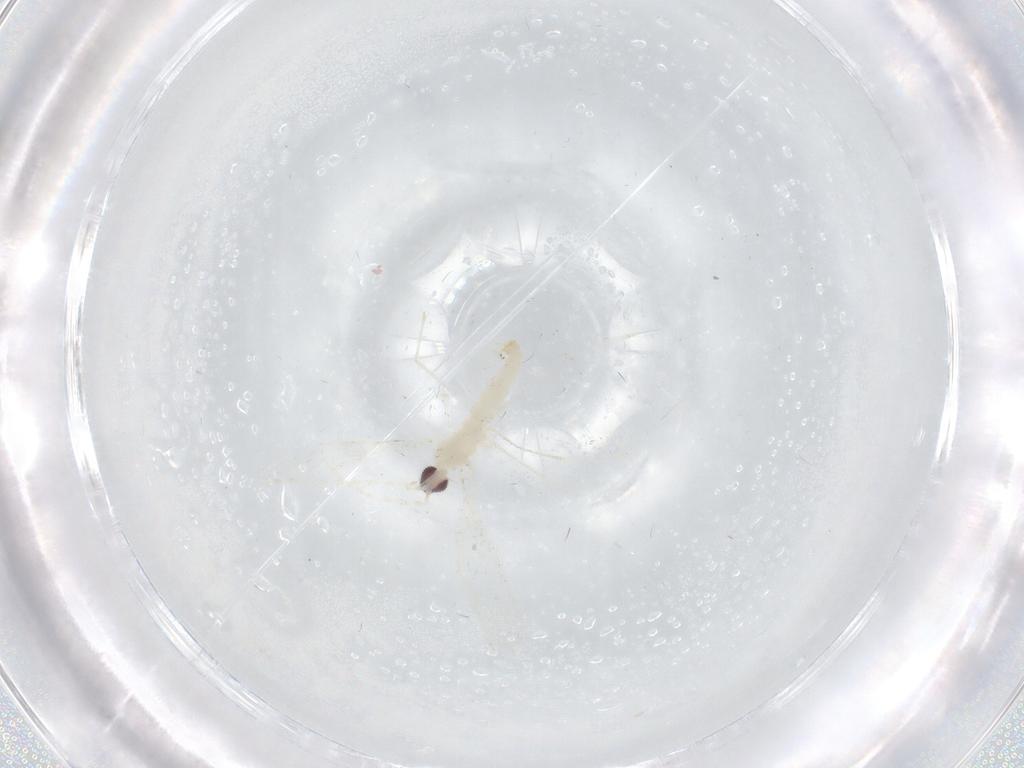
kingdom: Animalia
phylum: Arthropoda
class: Insecta
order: Diptera
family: Cecidomyiidae
